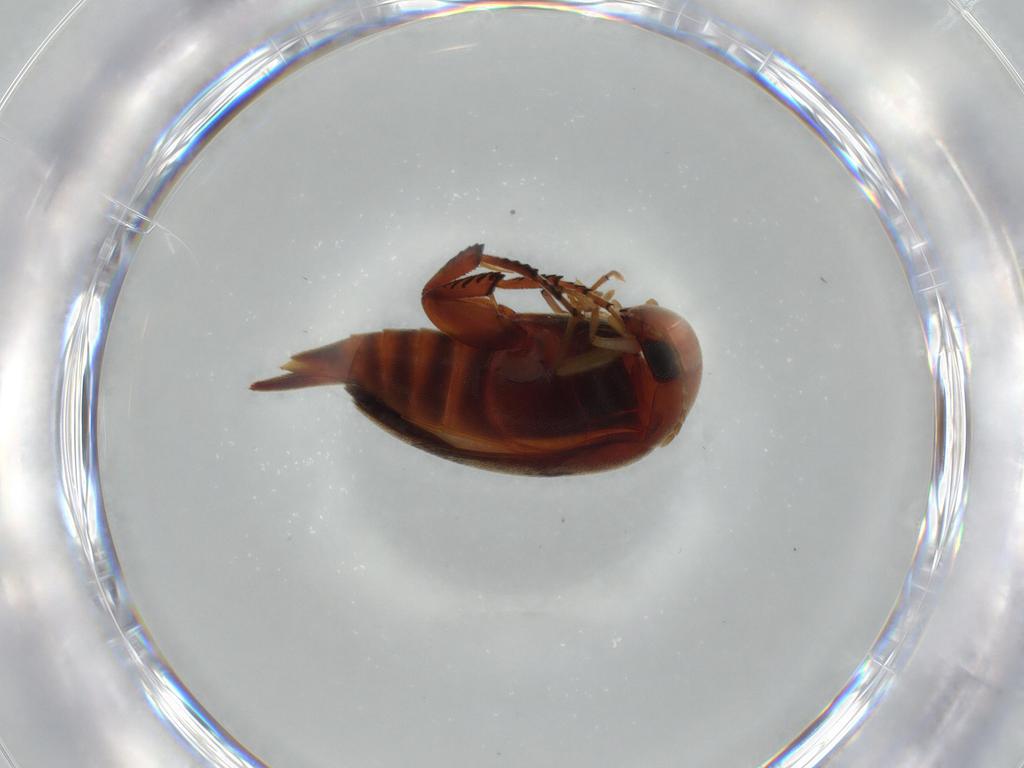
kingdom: Animalia
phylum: Arthropoda
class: Insecta
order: Coleoptera
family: Cerambycidae
